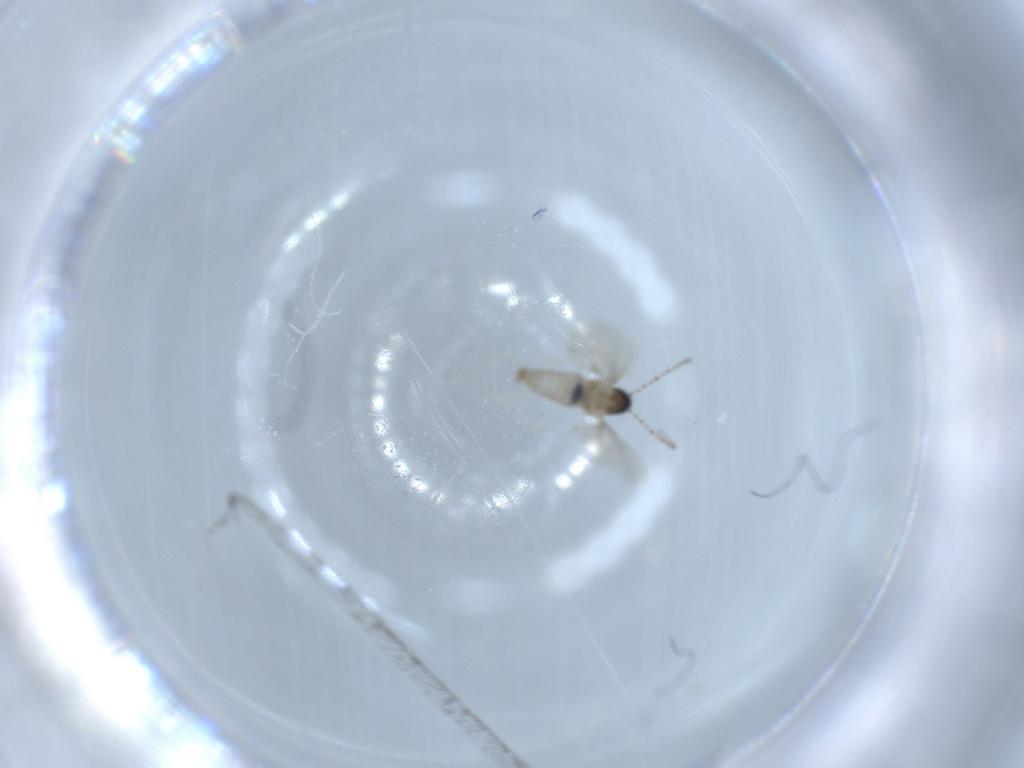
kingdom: Animalia
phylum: Arthropoda
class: Insecta
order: Diptera
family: Cecidomyiidae
